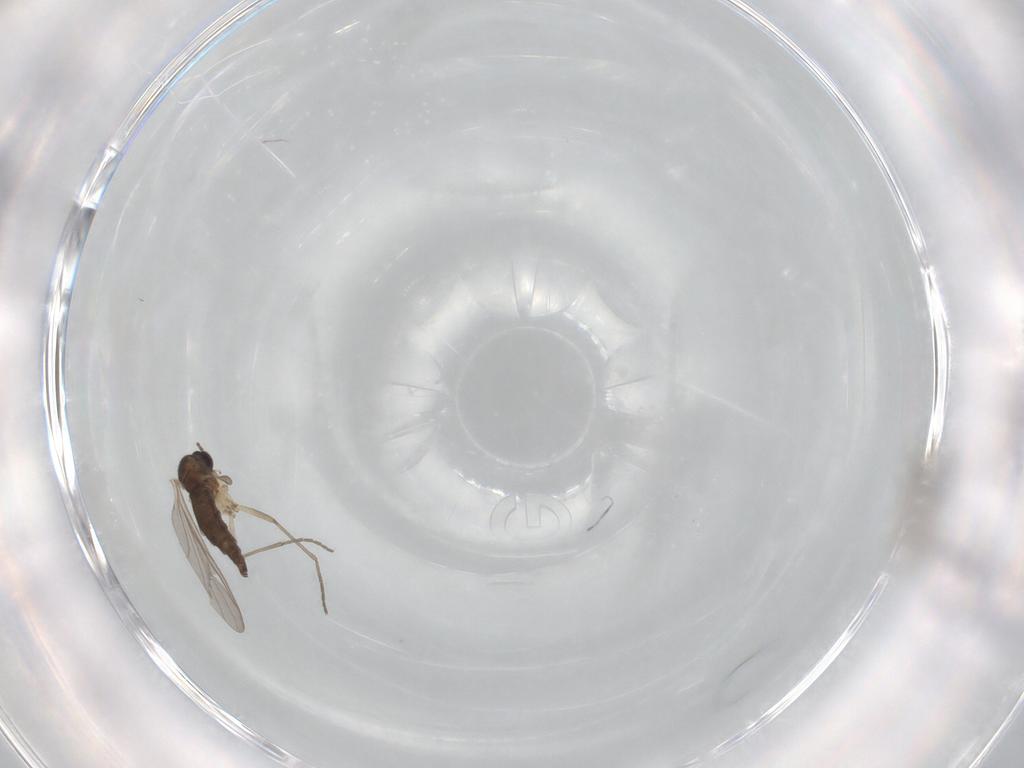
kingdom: Animalia
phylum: Arthropoda
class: Insecta
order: Diptera
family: Sciaridae
